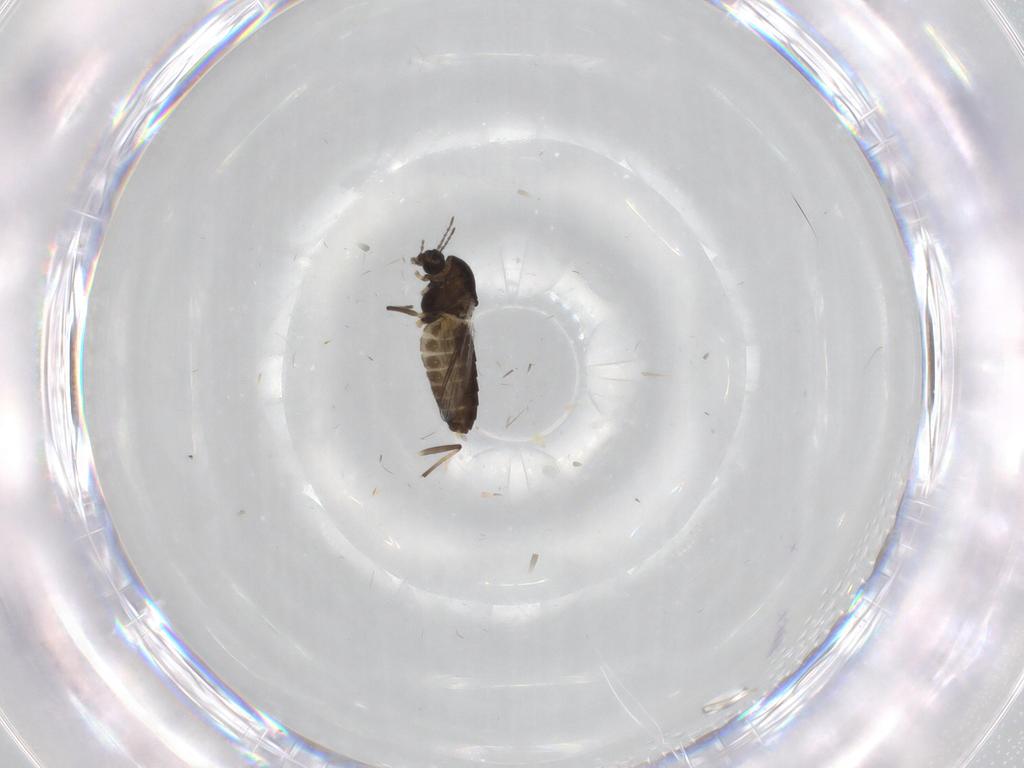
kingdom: Animalia
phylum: Arthropoda
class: Insecta
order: Diptera
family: Chironomidae
